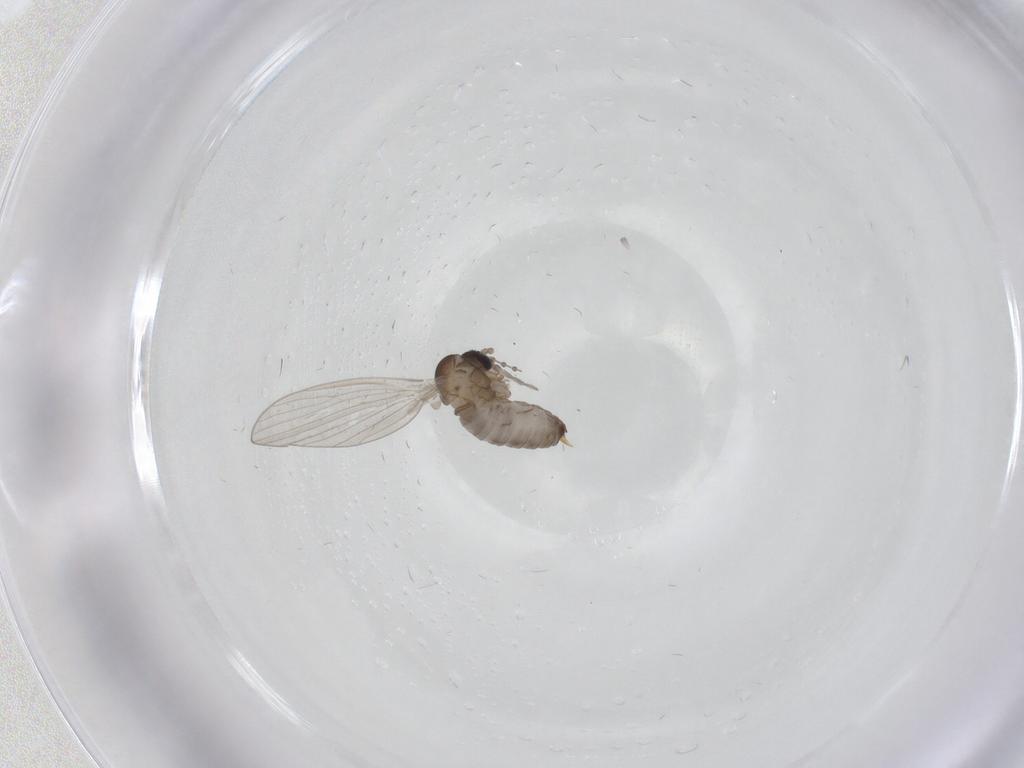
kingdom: Animalia
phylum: Arthropoda
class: Insecta
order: Diptera
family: Psychodidae
